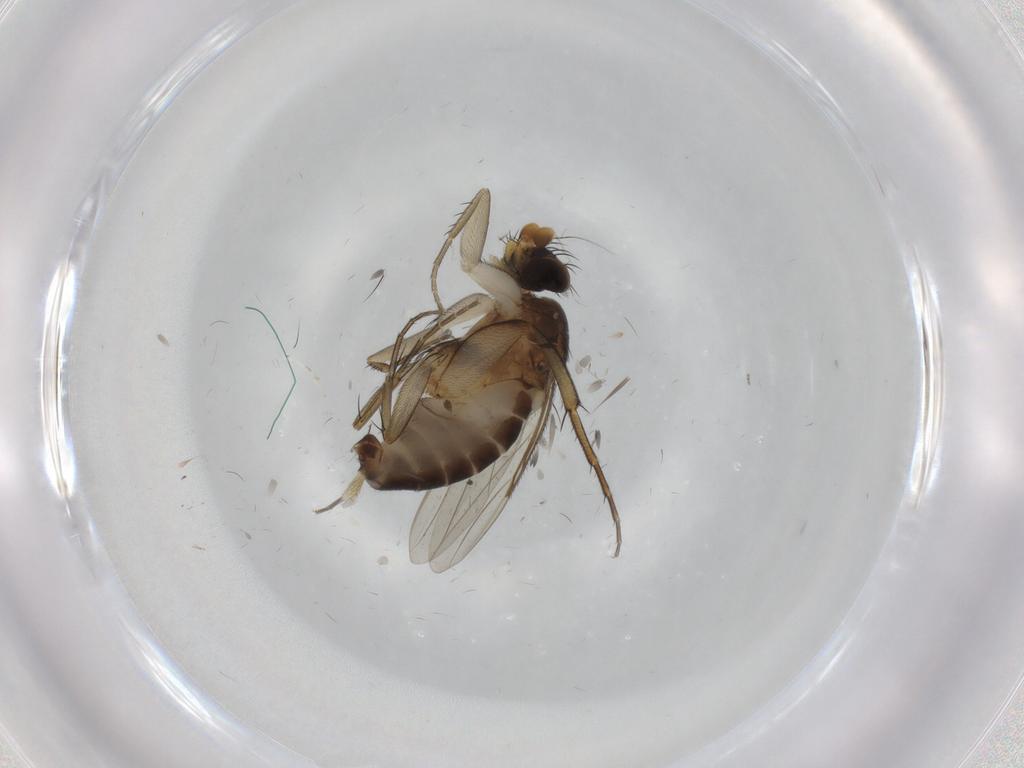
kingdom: Animalia
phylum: Arthropoda
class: Insecta
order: Diptera
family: Phoridae
